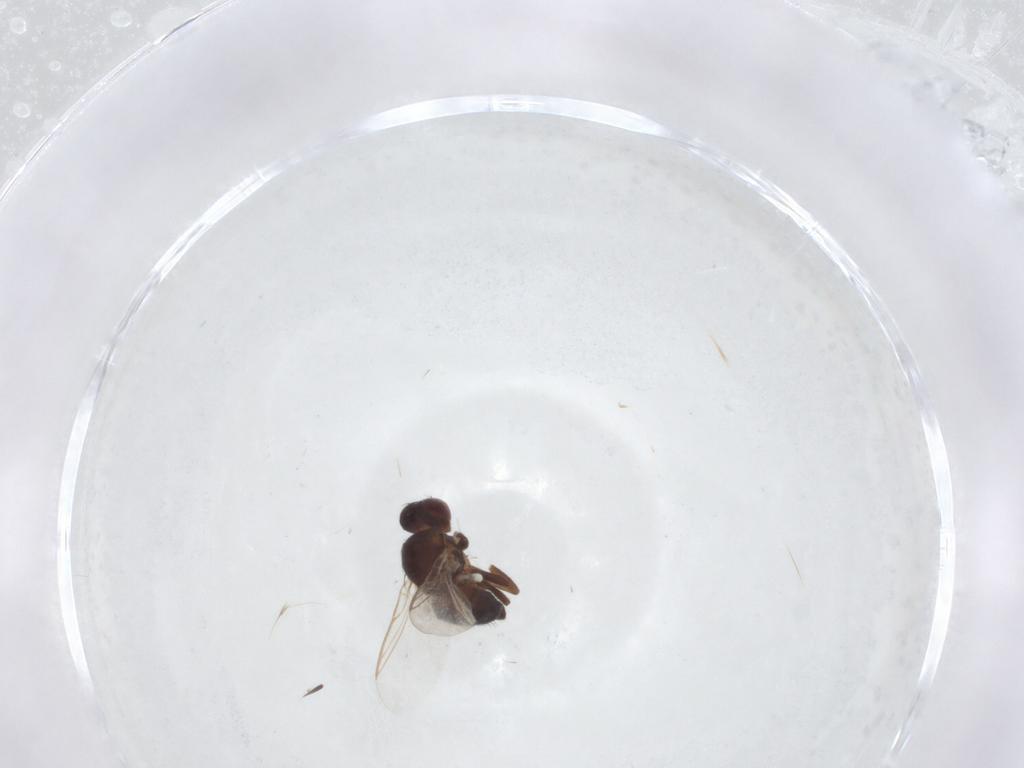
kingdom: Animalia
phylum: Arthropoda
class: Insecta
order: Diptera
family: Agromyzidae
